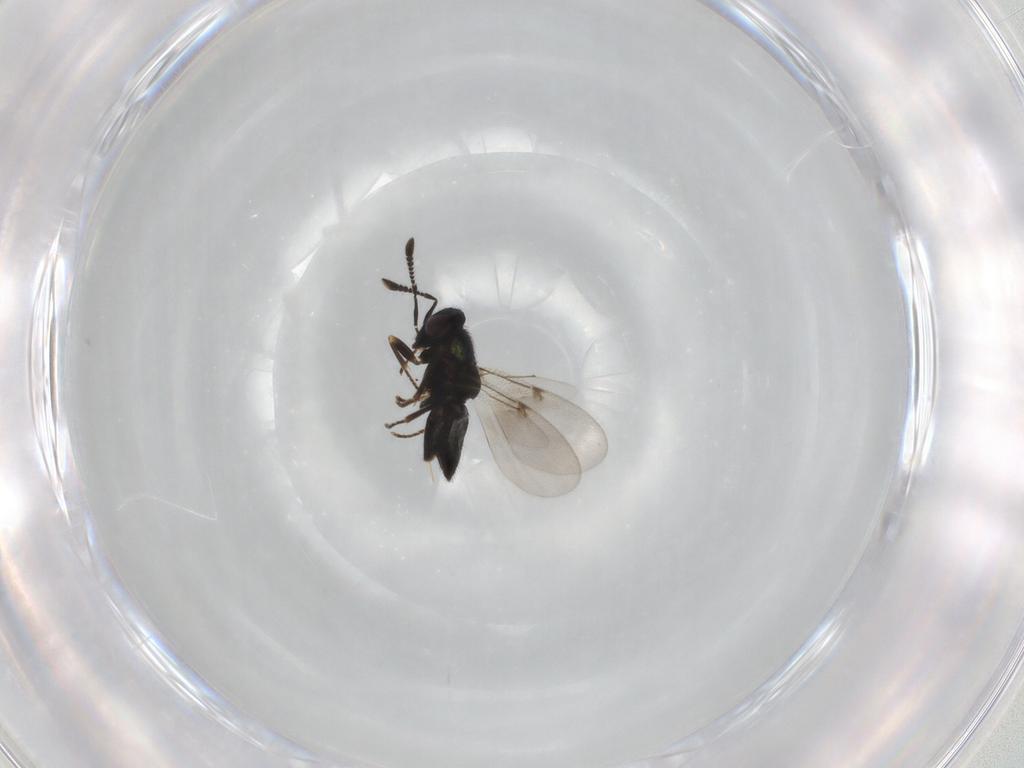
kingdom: Animalia
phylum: Arthropoda
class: Insecta
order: Hymenoptera
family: Encyrtidae
